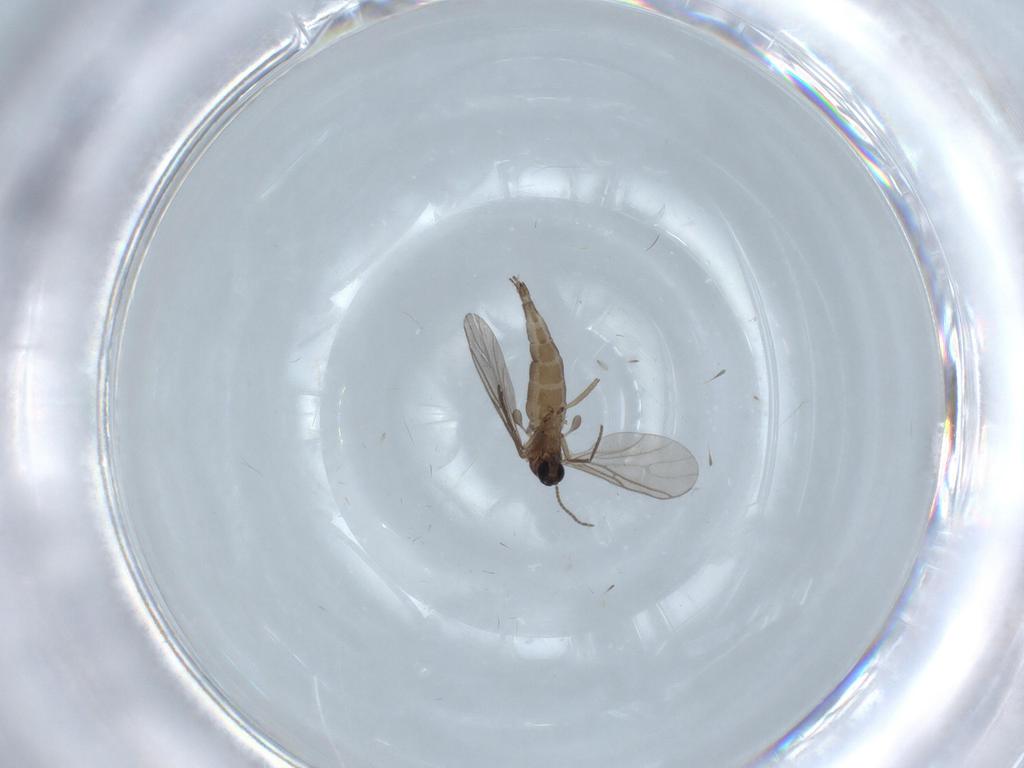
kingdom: Animalia
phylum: Arthropoda
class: Insecta
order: Diptera
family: Sciaridae
